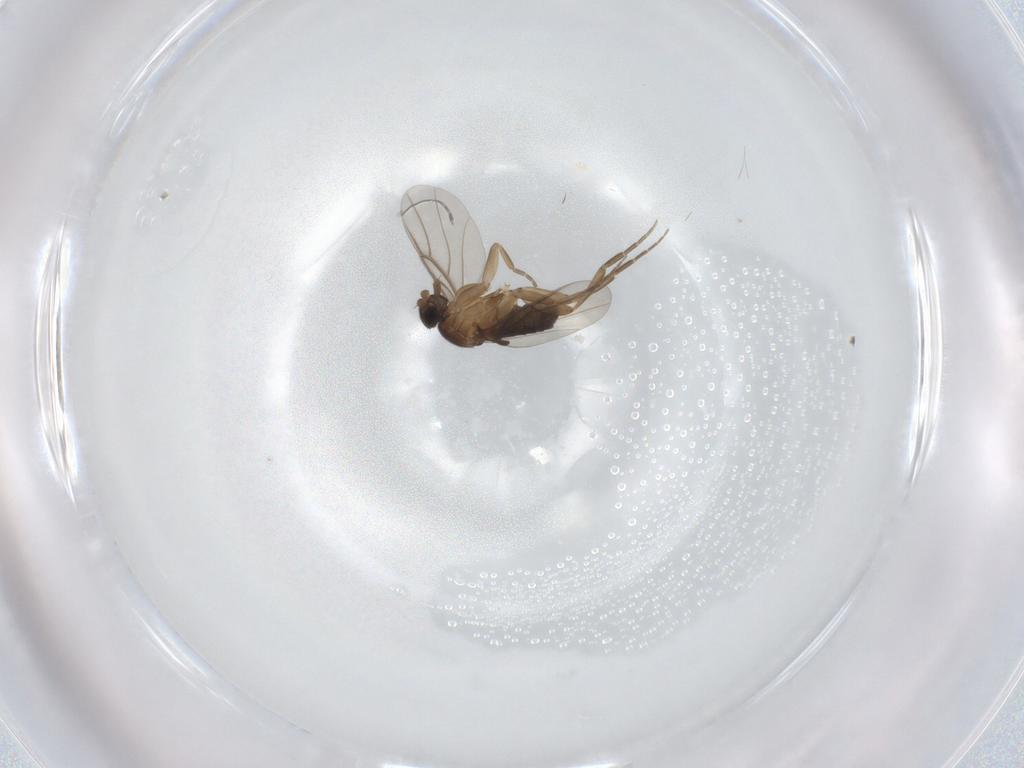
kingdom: Animalia
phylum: Arthropoda
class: Insecta
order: Diptera
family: Phoridae
